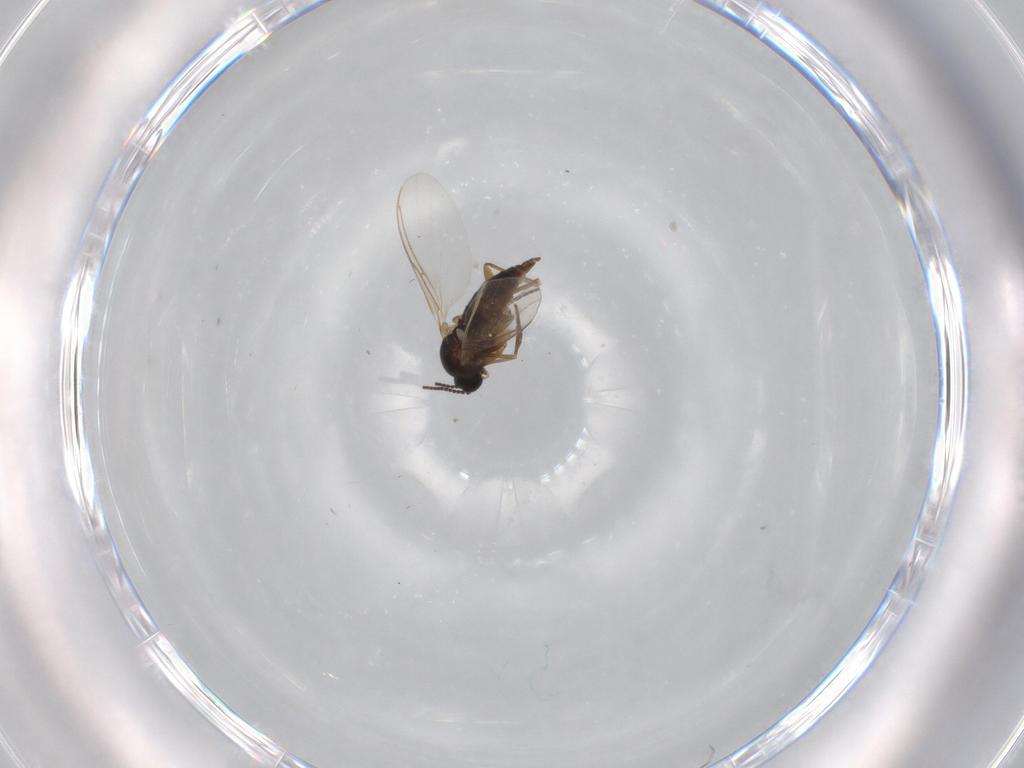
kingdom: Animalia
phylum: Arthropoda
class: Insecta
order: Diptera
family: Sciaridae
